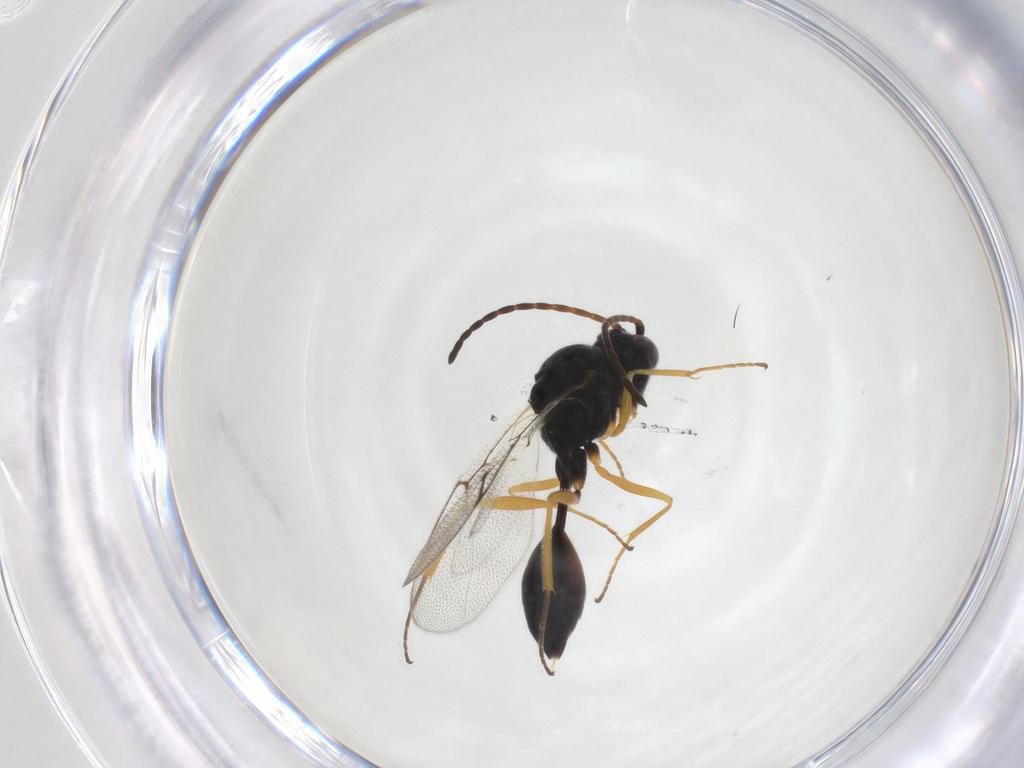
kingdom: Animalia
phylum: Arthropoda
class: Insecta
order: Hymenoptera
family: Figitidae
